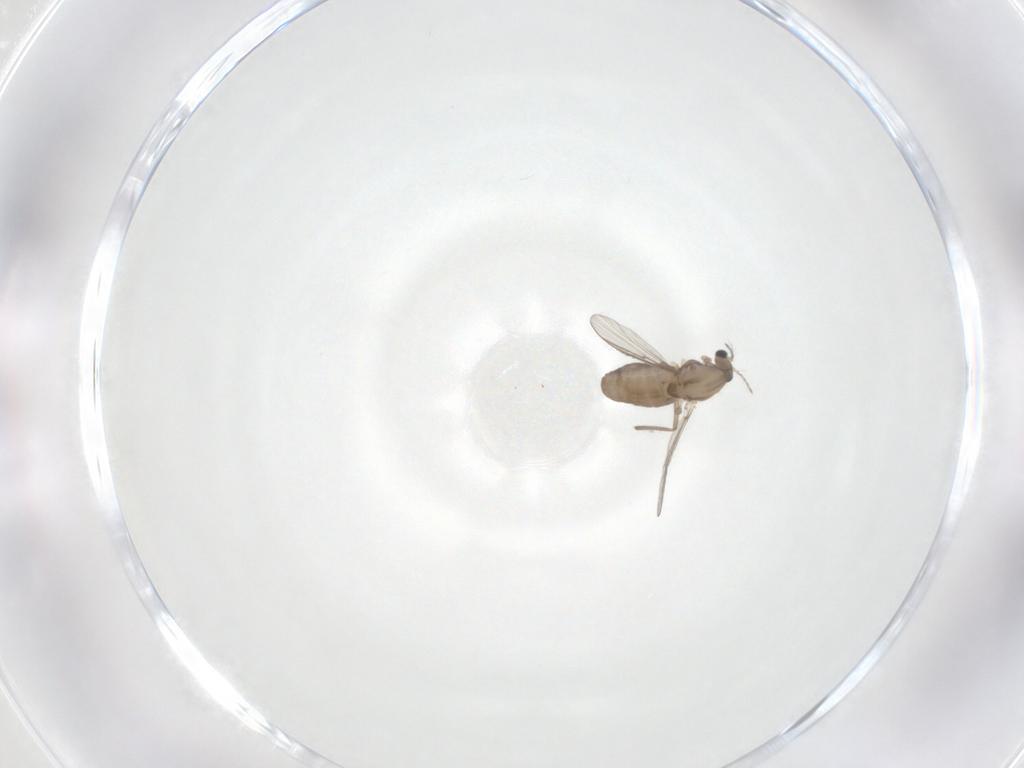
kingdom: Animalia
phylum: Arthropoda
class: Insecta
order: Diptera
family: Chironomidae
